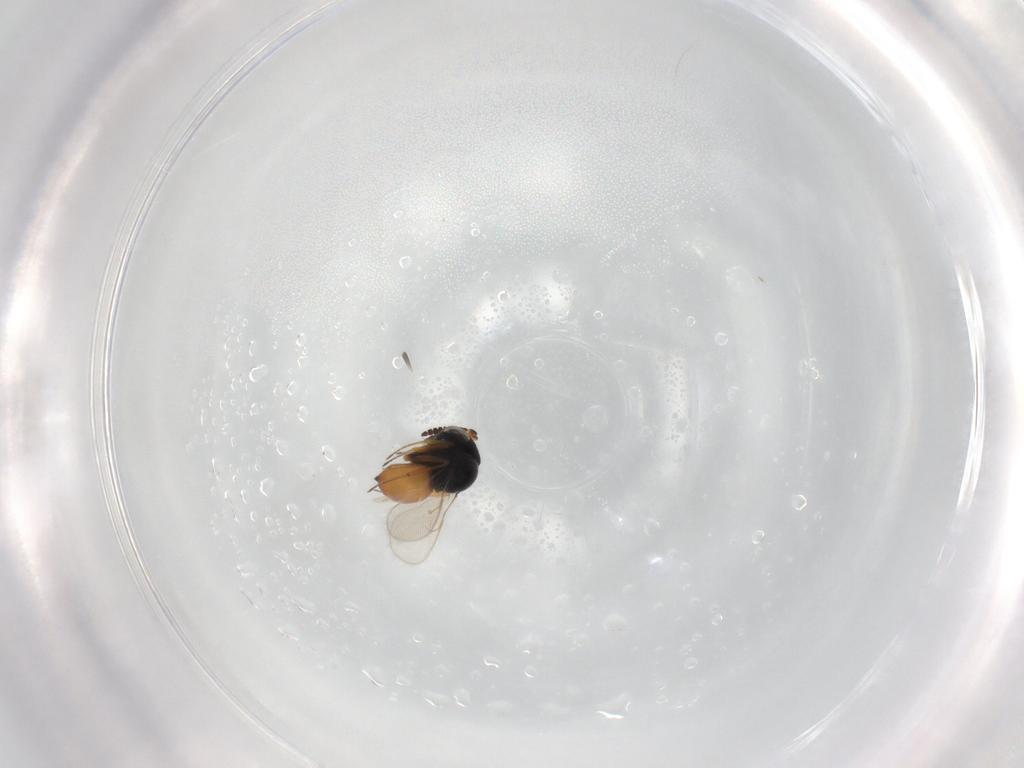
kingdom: Animalia
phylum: Arthropoda
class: Insecta
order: Hymenoptera
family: Scelionidae
